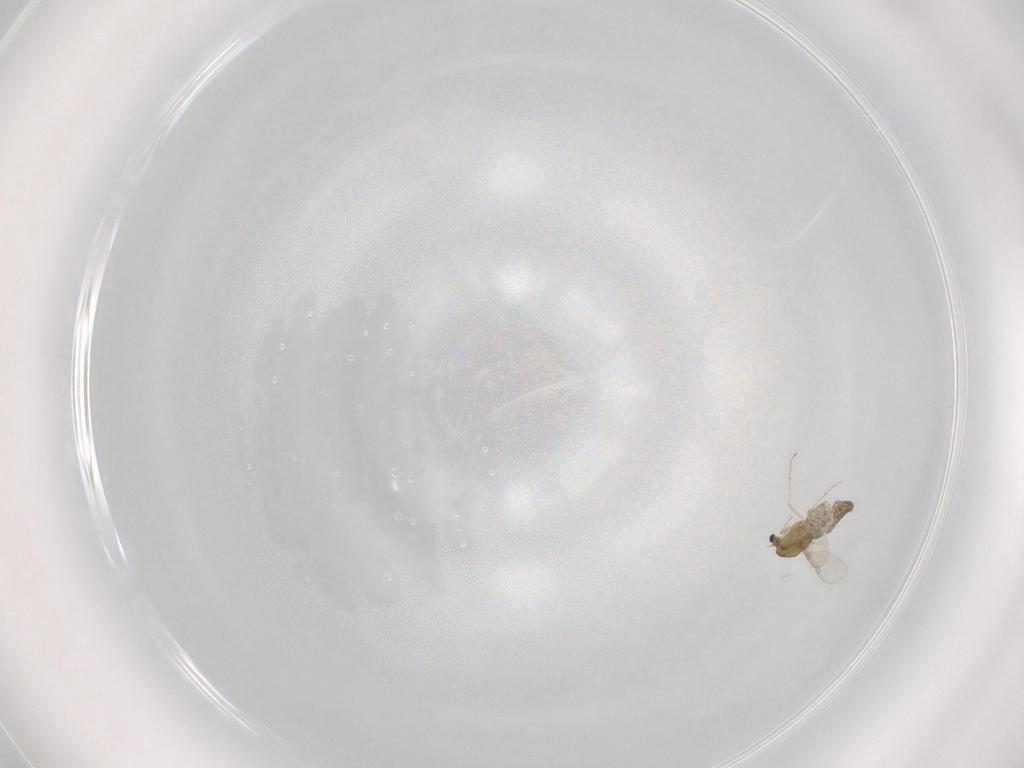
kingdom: Animalia
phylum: Arthropoda
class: Insecta
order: Diptera
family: Chironomidae
